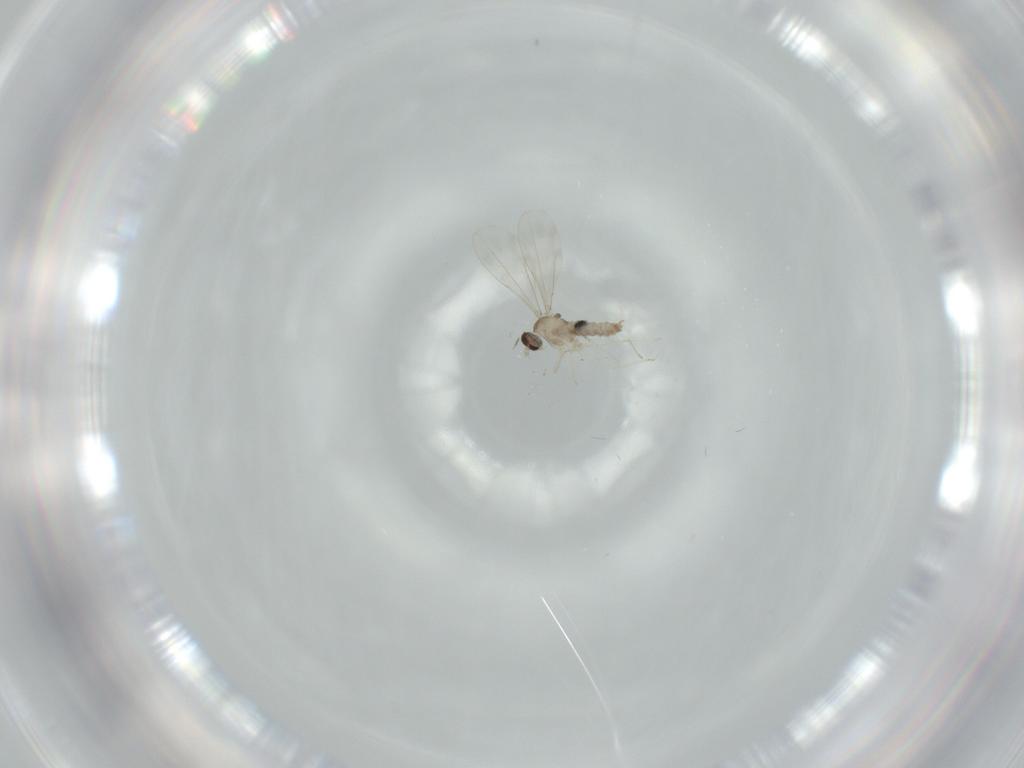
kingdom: Animalia
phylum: Arthropoda
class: Insecta
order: Diptera
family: Cecidomyiidae
